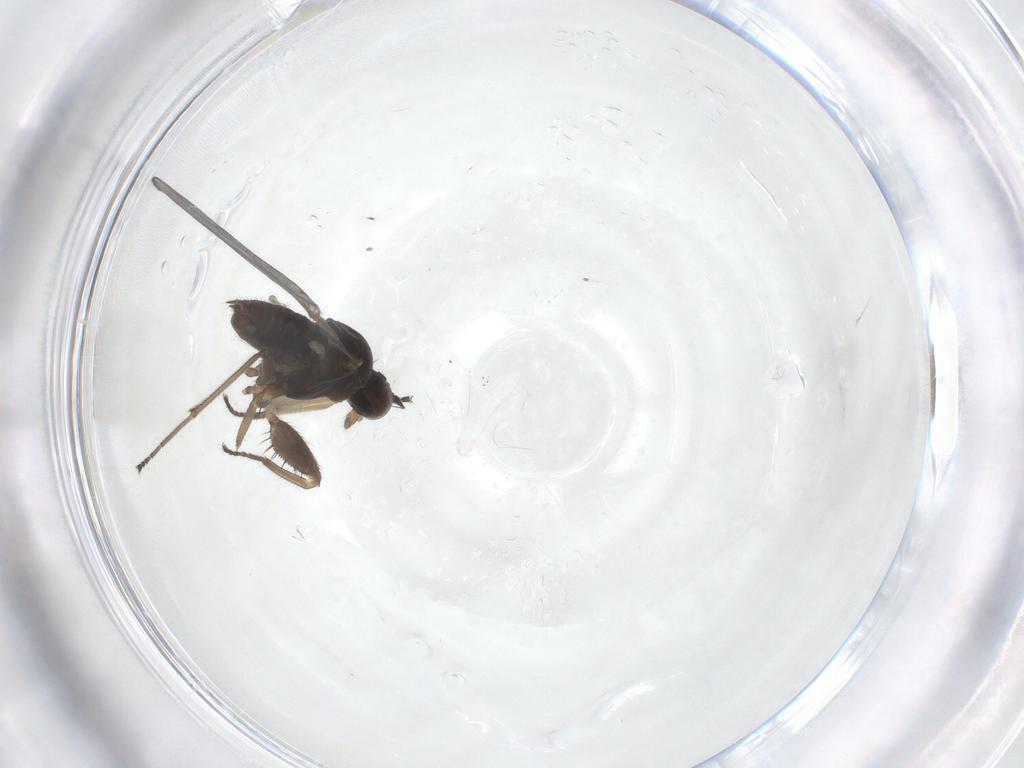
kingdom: Animalia
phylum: Arthropoda
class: Insecta
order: Diptera
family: Empididae
